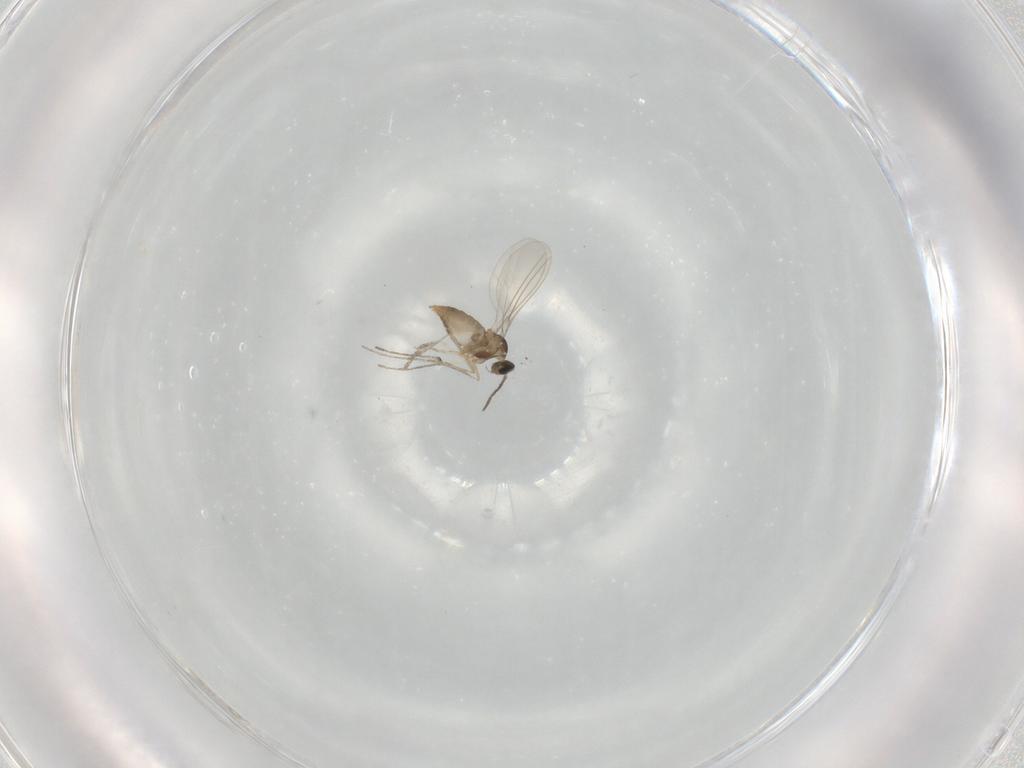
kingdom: Animalia
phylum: Arthropoda
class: Insecta
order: Diptera
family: Cecidomyiidae
